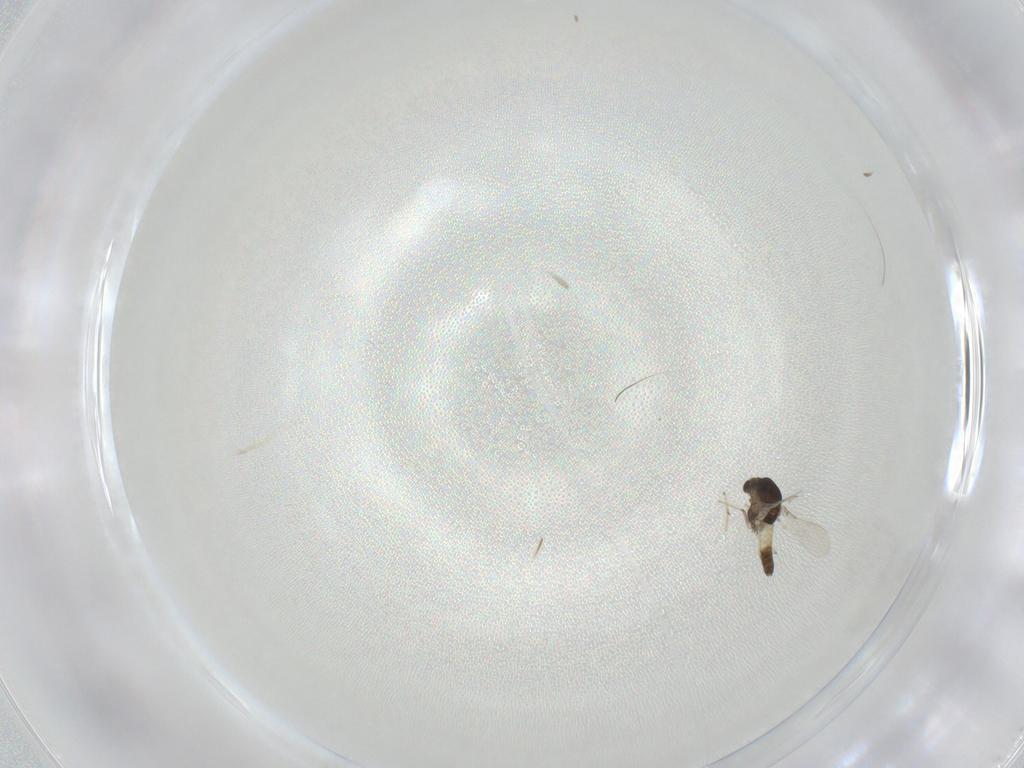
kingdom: Animalia
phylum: Arthropoda
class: Insecta
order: Diptera
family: Chironomidae
